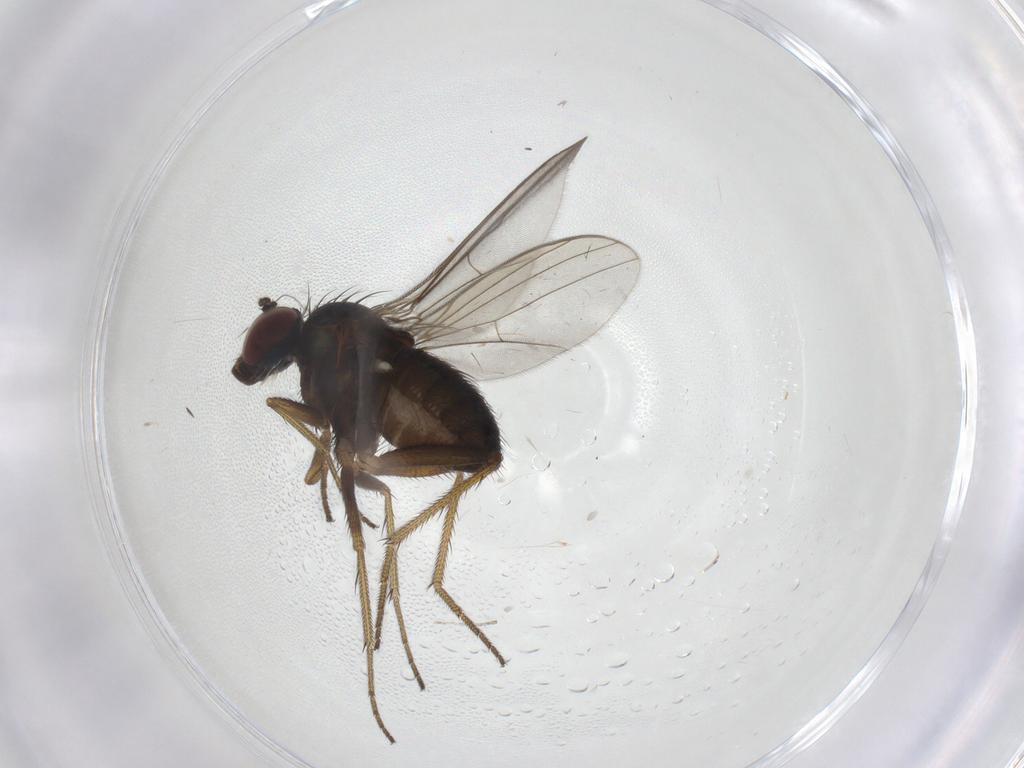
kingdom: Animalia
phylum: Arthropoda
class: Insecta
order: Diptera
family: Dolichopodidae
